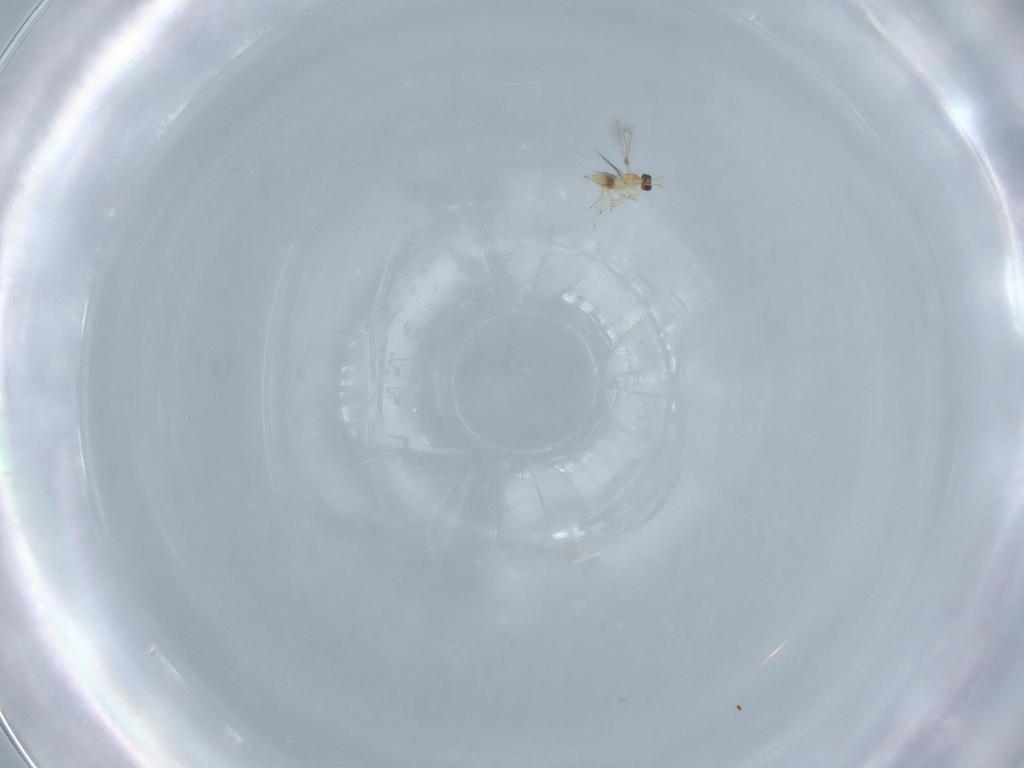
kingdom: Animalia
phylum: Arthropoda
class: Insecta
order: Hymenoptera
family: Mymaridae
